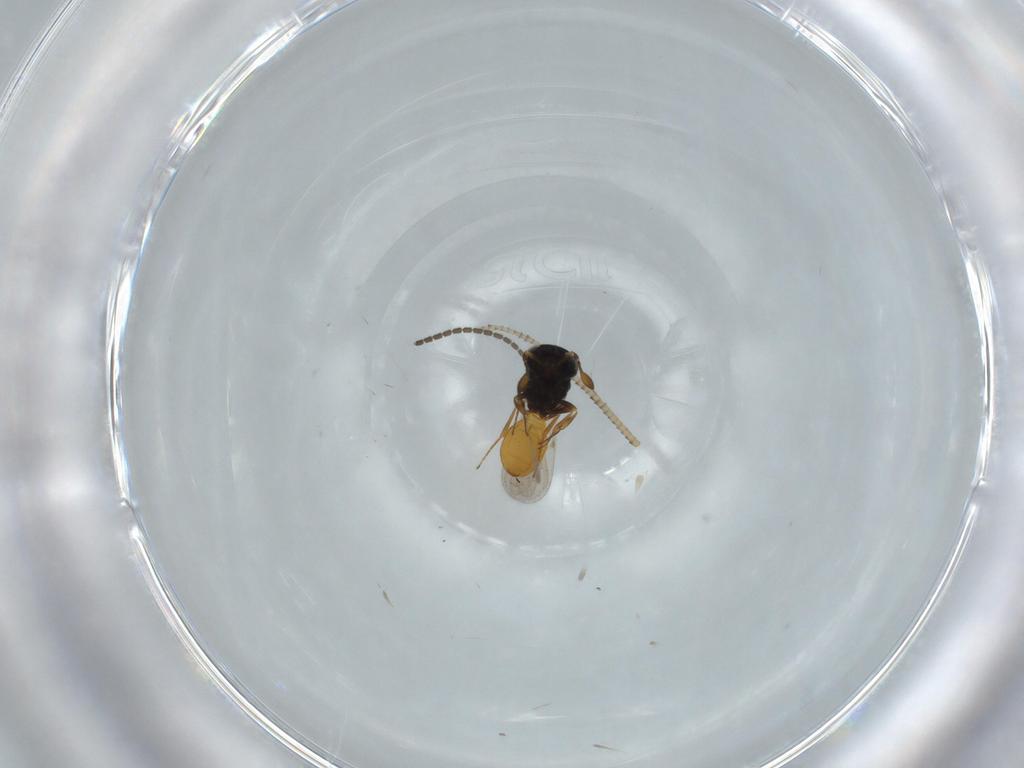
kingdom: Animalia
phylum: Arthropoda
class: Insecta
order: Hymenoptera
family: Scelionidae
